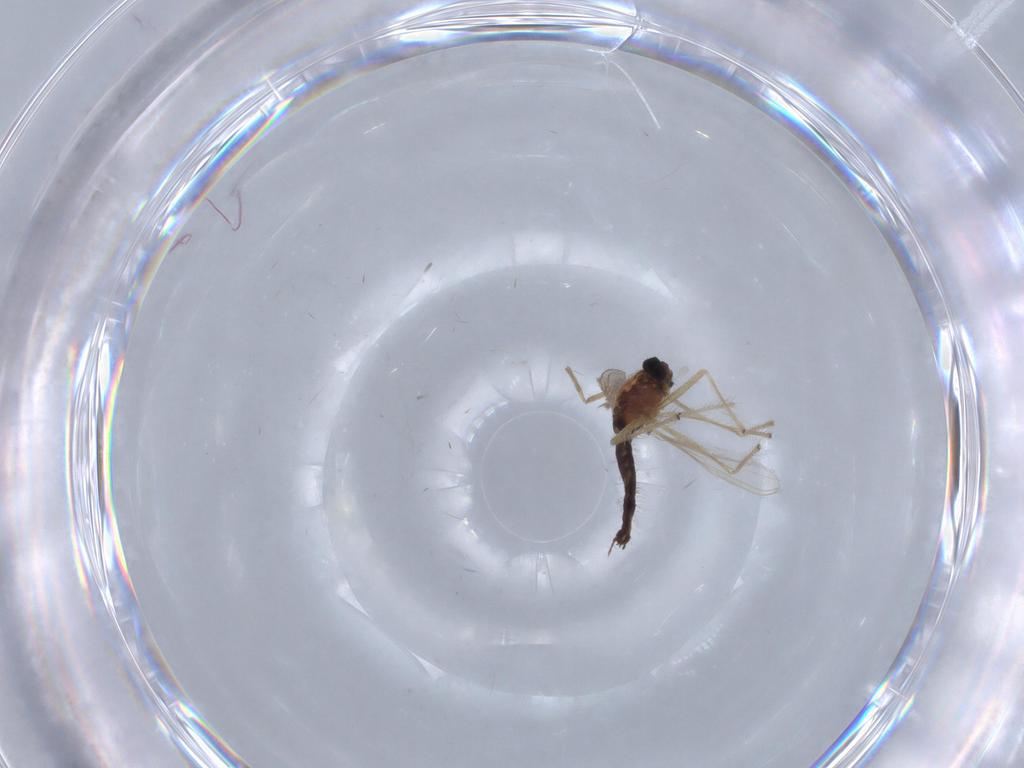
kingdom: Animalia
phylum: Arthropoda
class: Insecta
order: Diptera
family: Chironomidae
